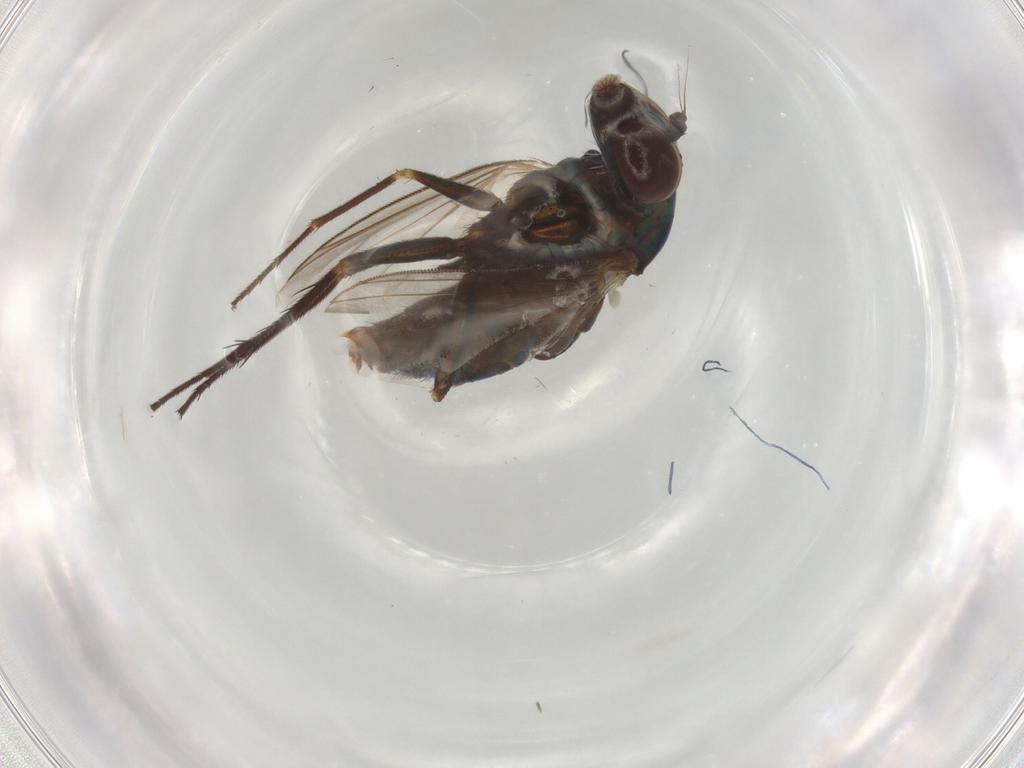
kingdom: Animalia
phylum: Arthropoda
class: Insecta
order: Diptera
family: Dolichopodidae
